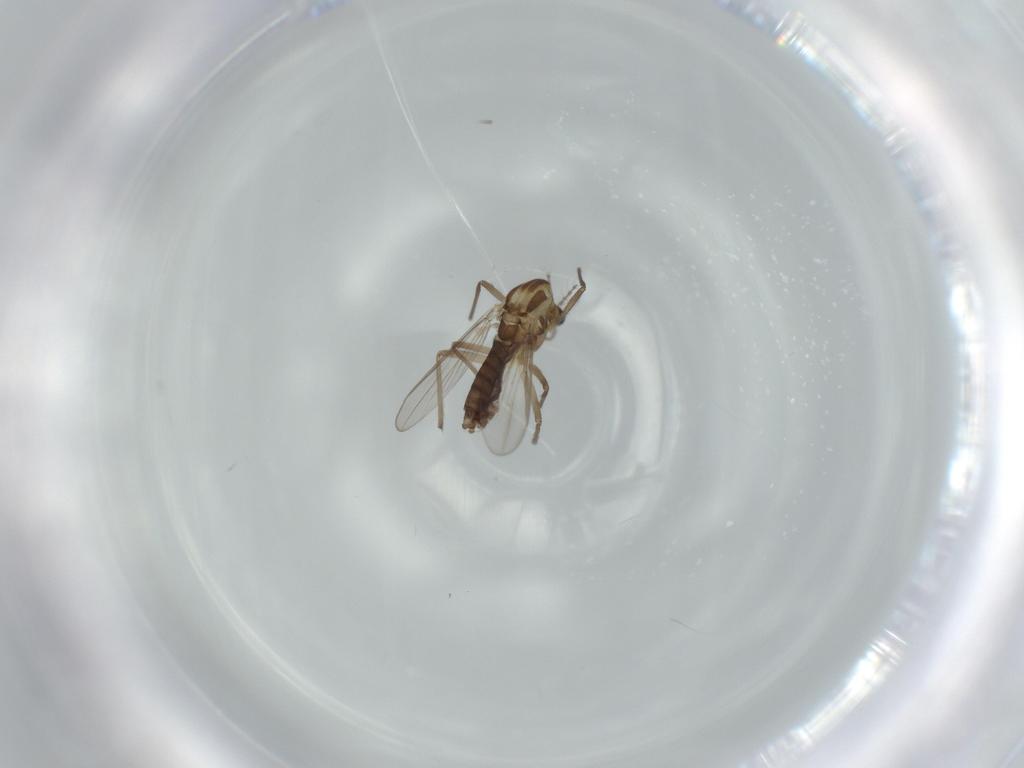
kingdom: Animalia
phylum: Arthropoda
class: Insecta
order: Diptera
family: Chironomidae
